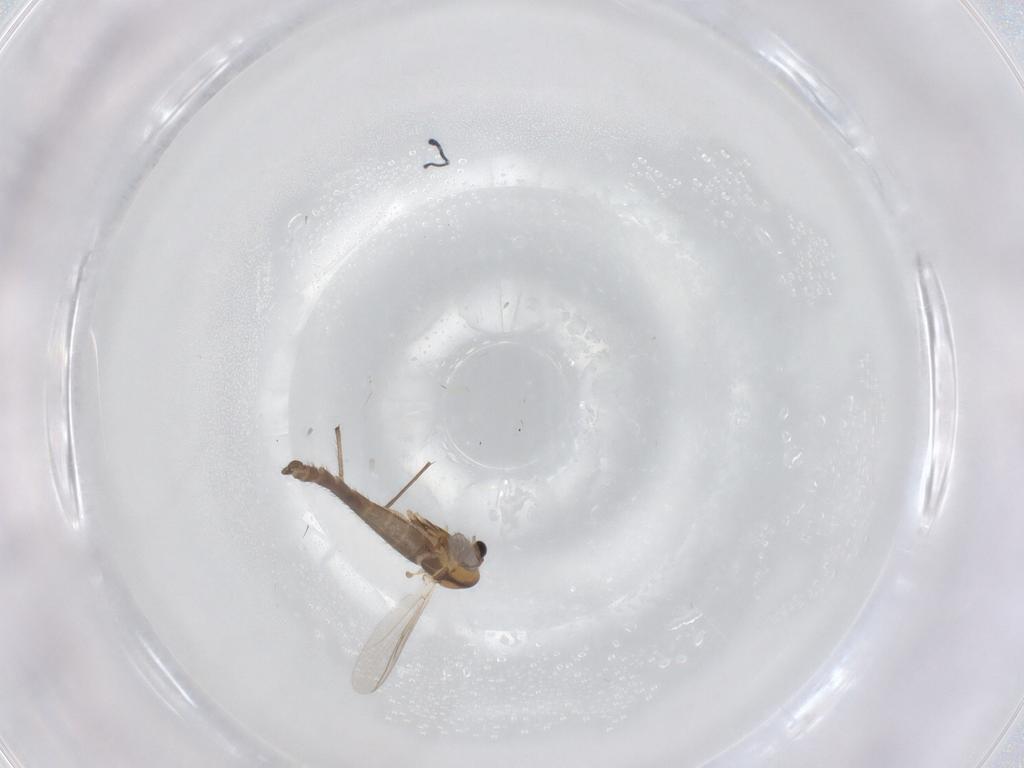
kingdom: Animalia
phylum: Arthropoda
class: Insecta
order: Diptera
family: Chironomidae
